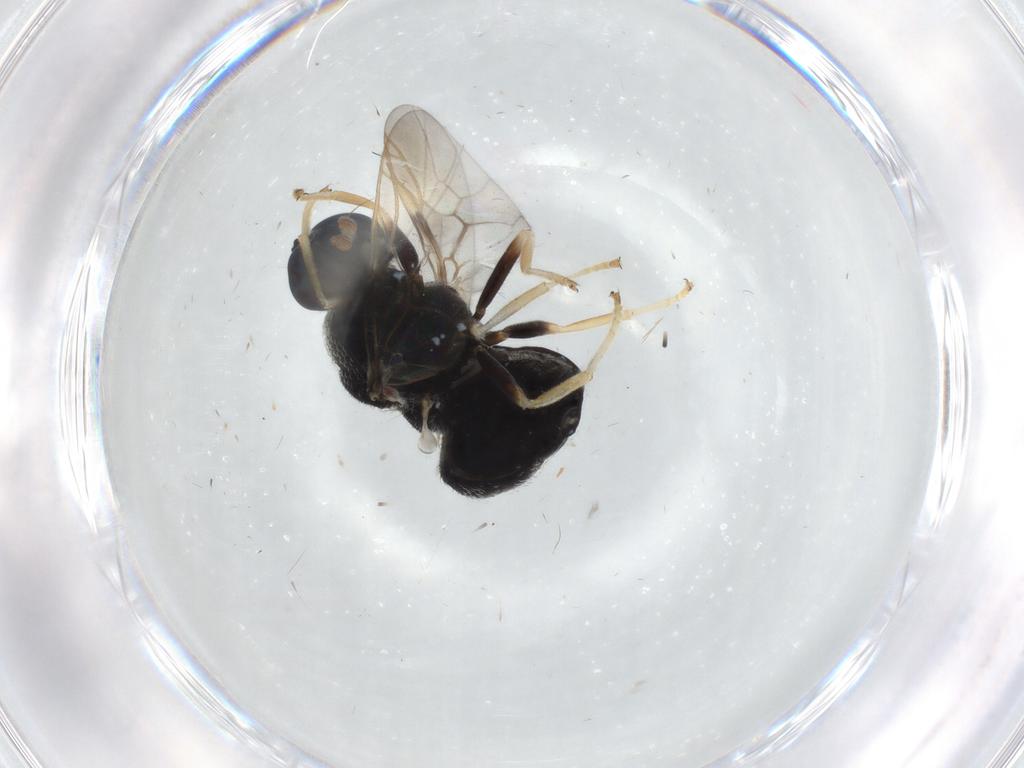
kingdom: Animalia
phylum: Arthropoda
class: Insecta
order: Diptera
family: Stratiomyidae
